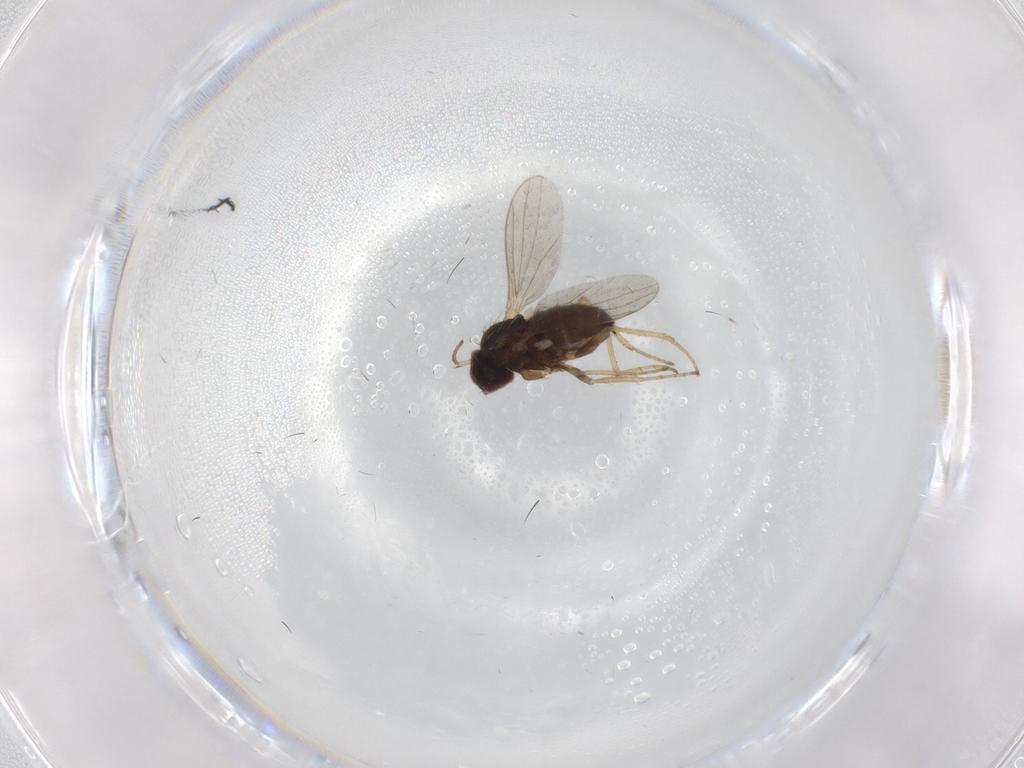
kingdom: Animalia
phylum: Arthropoda
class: Insecta
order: Diptera
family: Dolichopodidae
